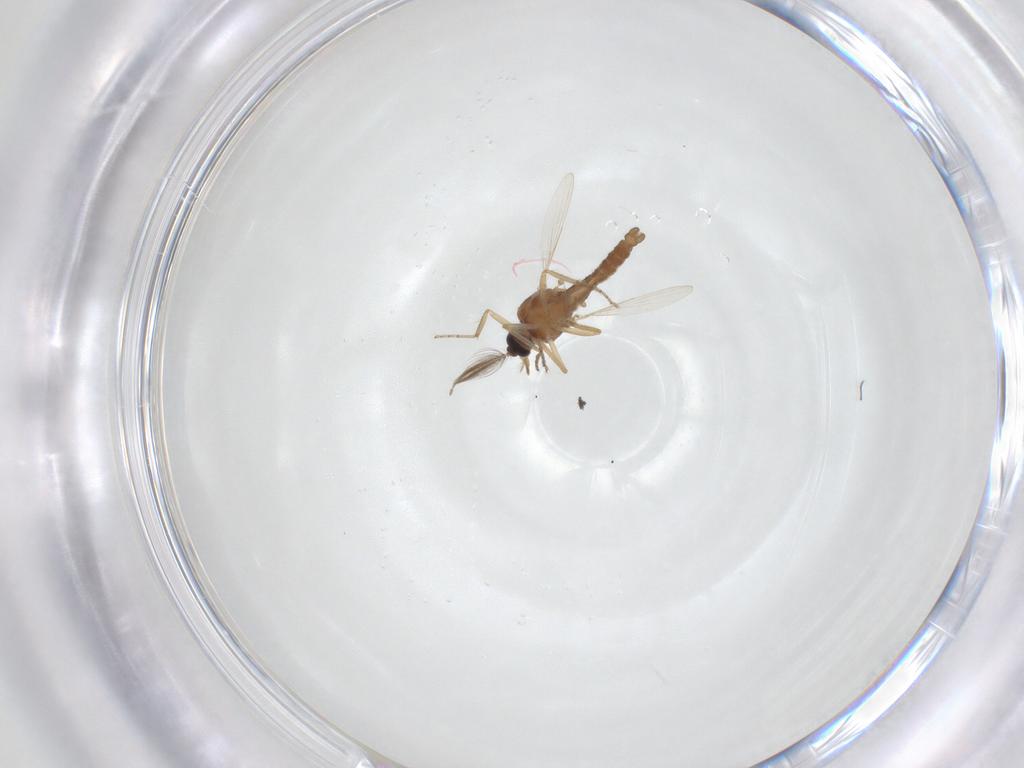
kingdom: Animalia
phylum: Arthropoda
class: Insecta
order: Diptera
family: Ceratopogonidae
